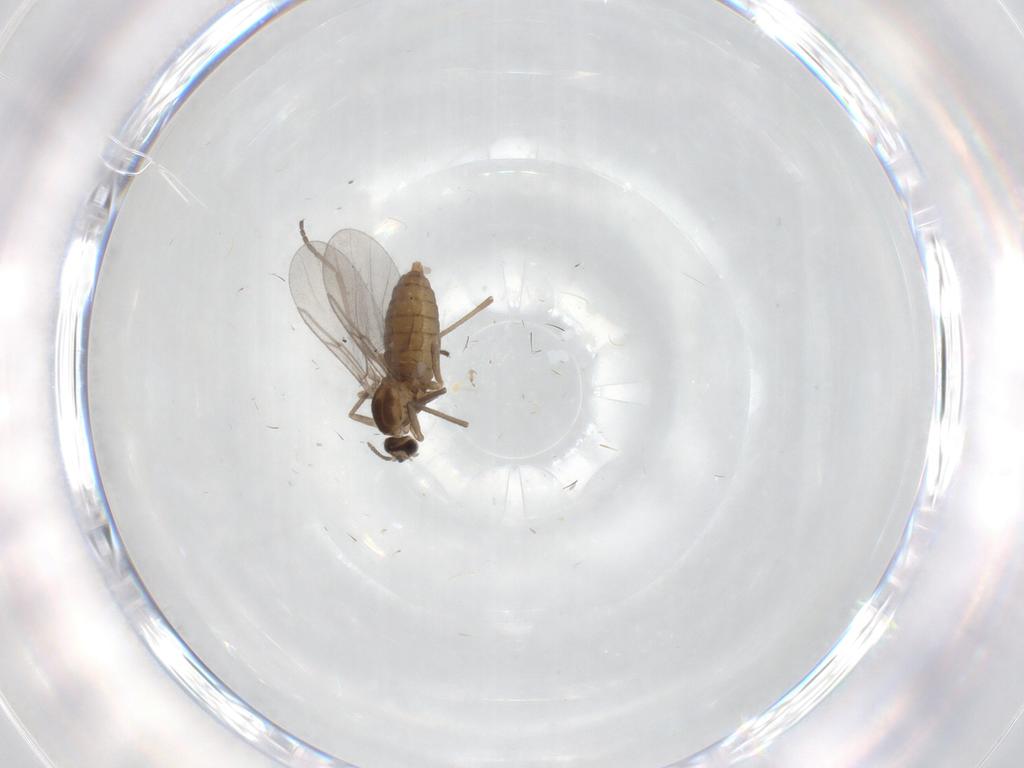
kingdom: Animalia
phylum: Arthropoda
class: Insecta
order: Diptera
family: Cecidomyiidae
